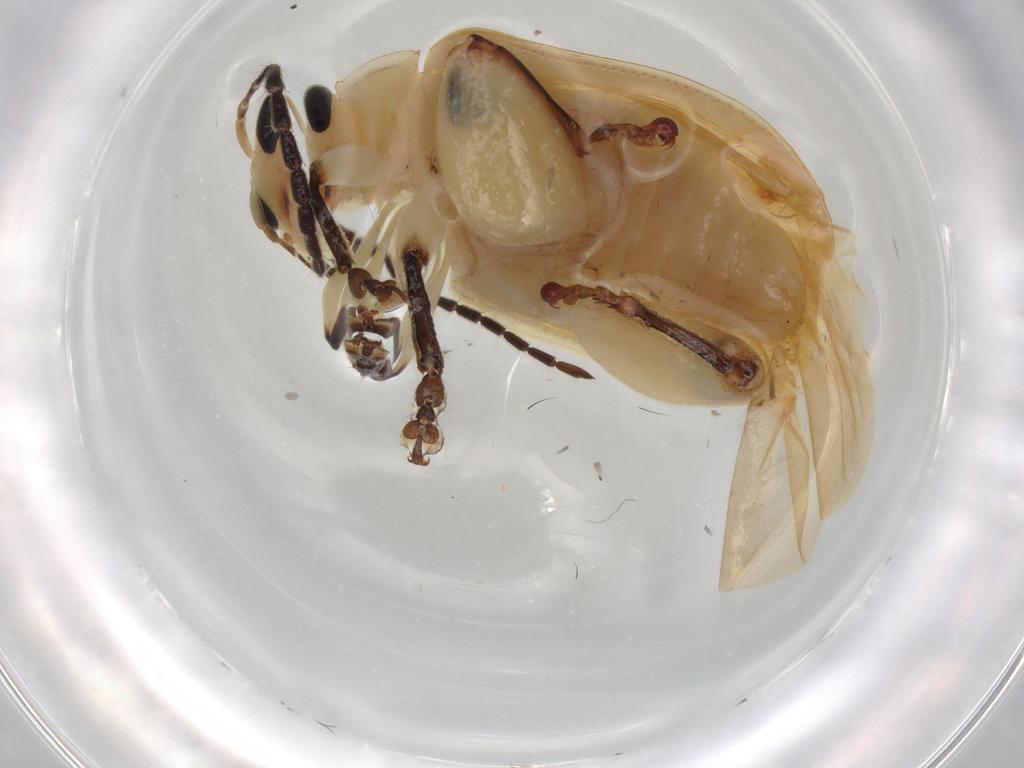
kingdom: Animalia
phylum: Arthropoda
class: Insecta
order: Coleoptera
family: Chrysomelidae
